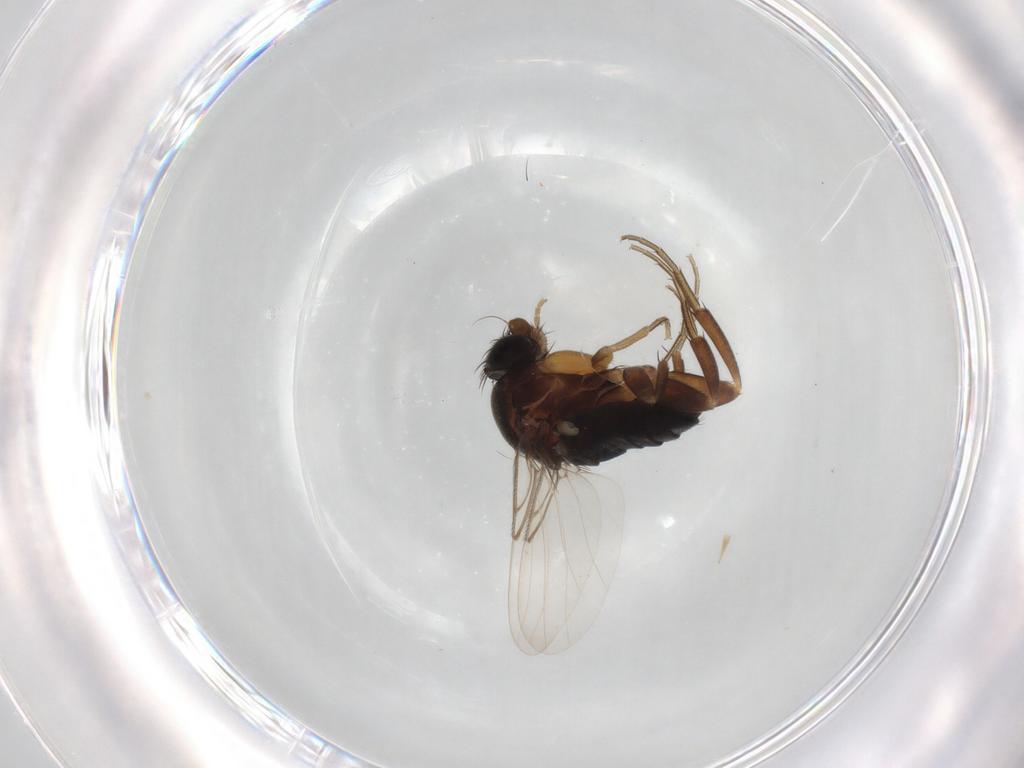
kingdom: Animalia
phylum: Arthropoda
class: Insecta
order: Diptera
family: Phoridae
